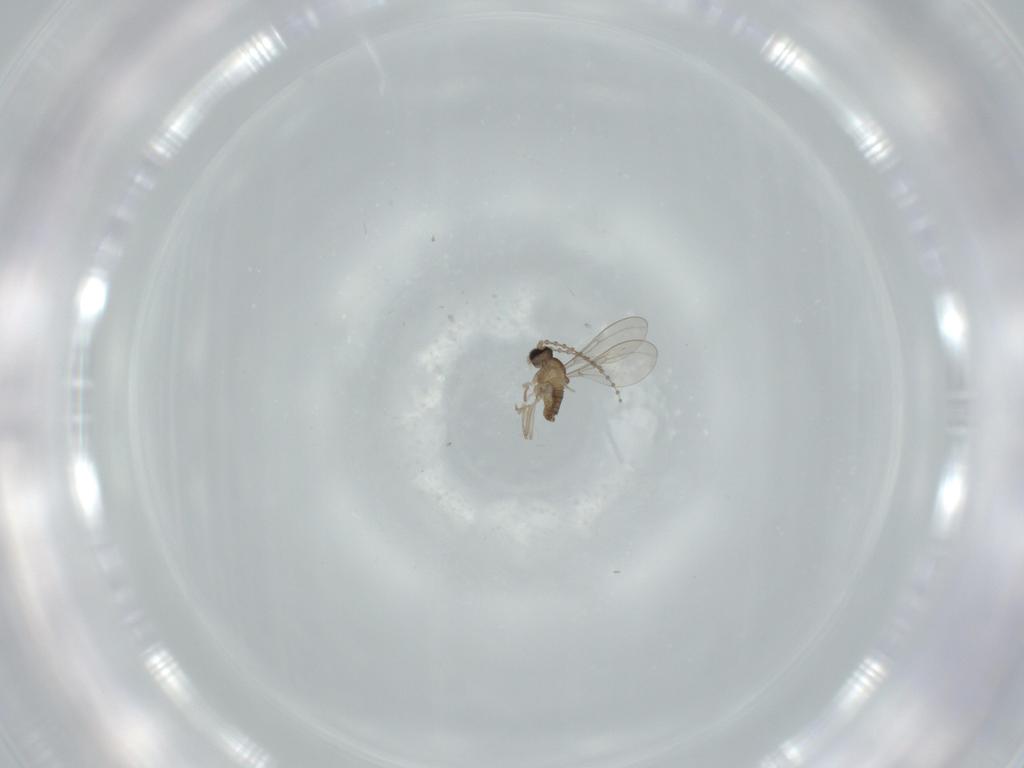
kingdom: Animalia
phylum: Arthropoda
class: Insecta
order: Diptera
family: Cecidomyiidae
